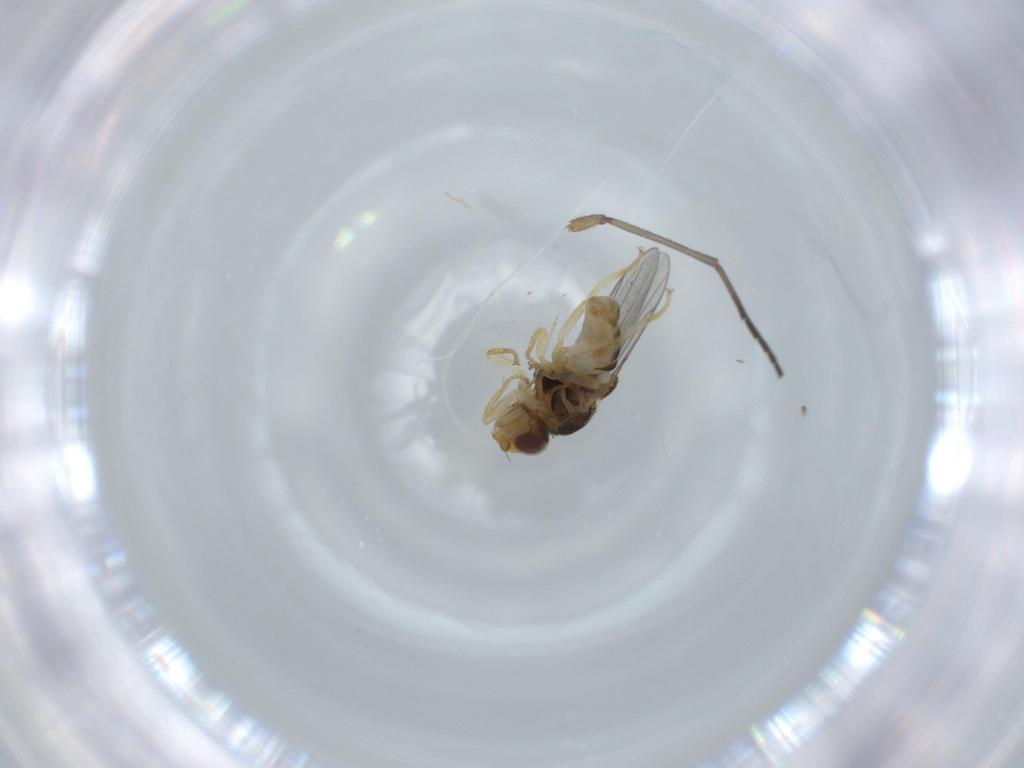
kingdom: Animalia
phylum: Arthropoda
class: Insecta
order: Diptera
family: Chloropidae
